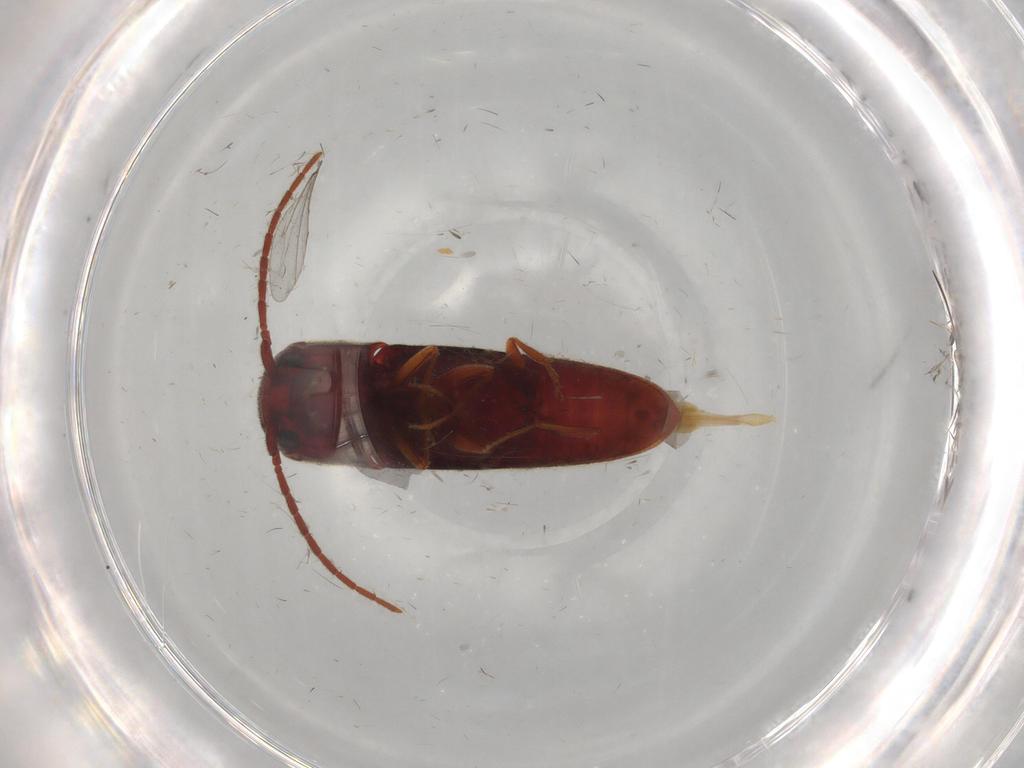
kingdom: Animalia
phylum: Arthropoda
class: Insecta
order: Coleoptera
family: Eucnemidae
